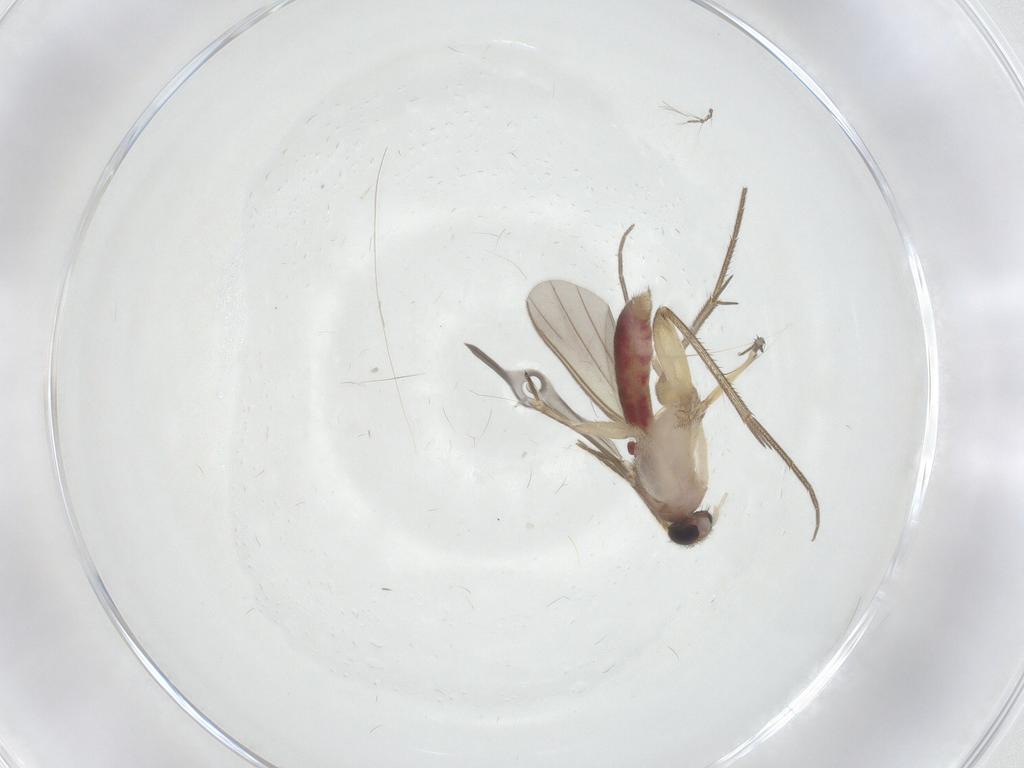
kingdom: Animalia
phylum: Arthropoda
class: Insecta
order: Diptera
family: Mycetophilidae
